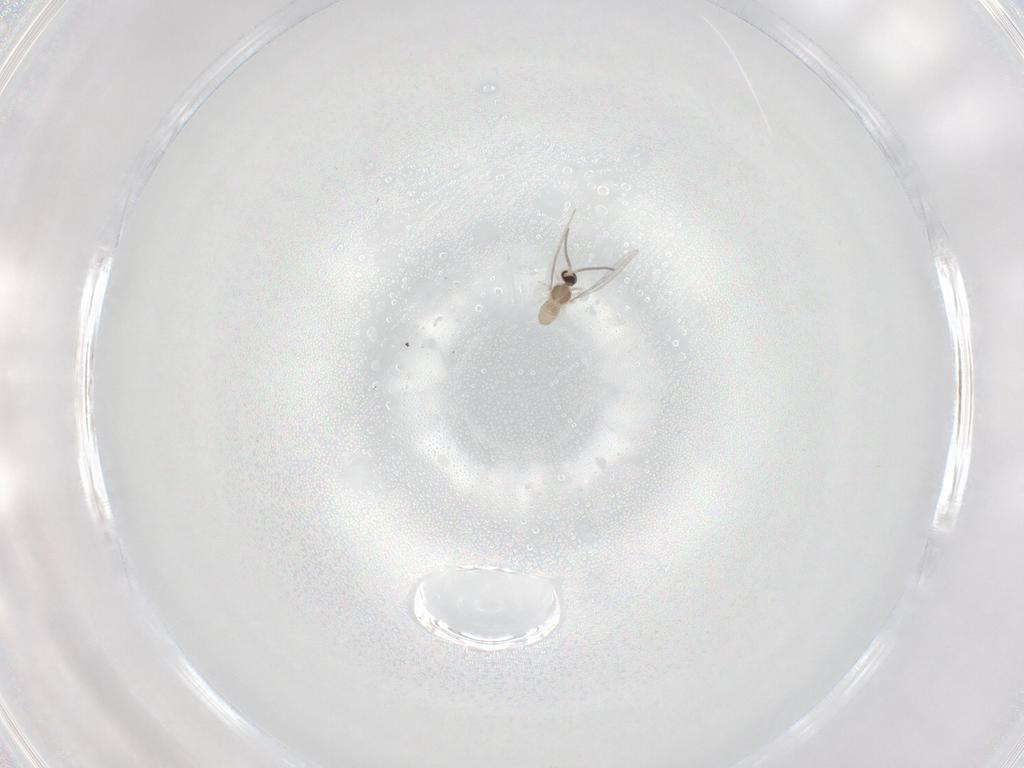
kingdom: Animalia
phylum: Arthropoda
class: Insecta
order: Diptera
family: Cecidomyiidae
